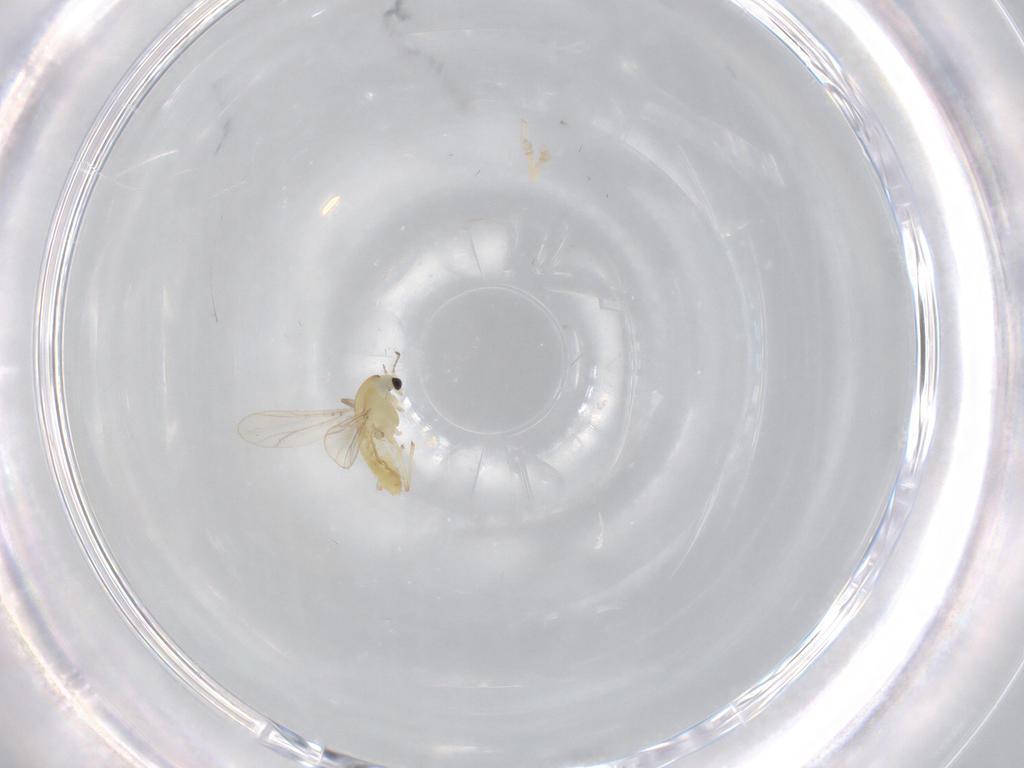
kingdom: Animalia
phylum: Arthropoda
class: Insecta
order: Diptera
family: Chironomidae
